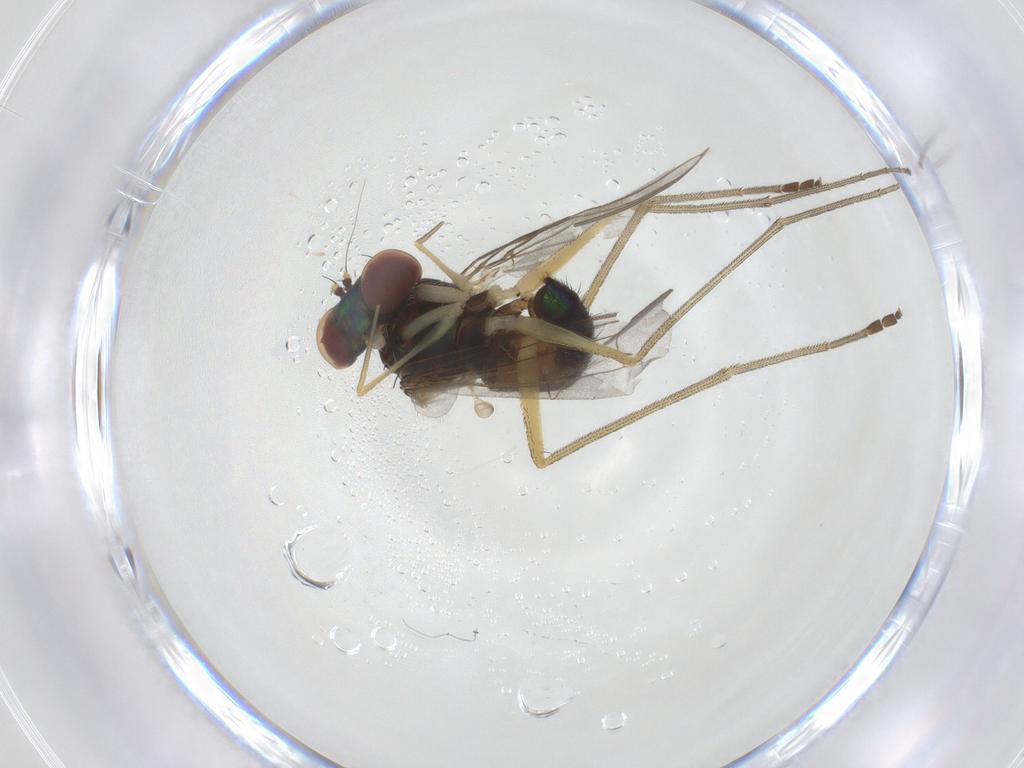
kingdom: Animalia
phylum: Arthropoda
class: Insecta
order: Diptera
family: Dolichopodidae
